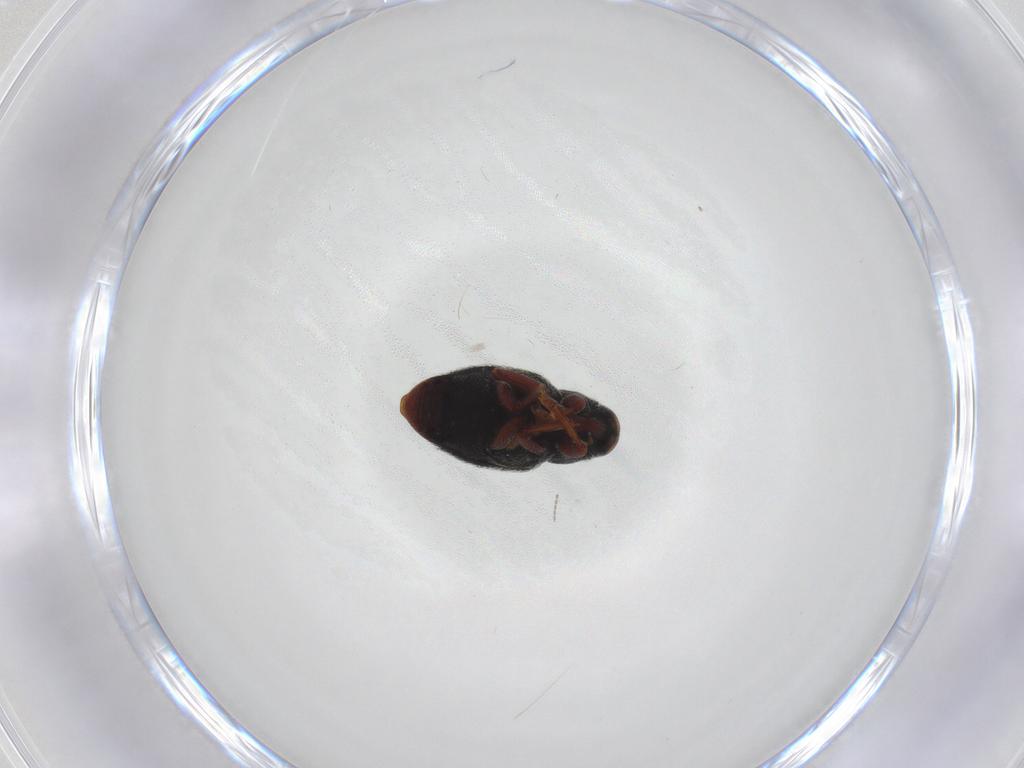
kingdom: Animalia
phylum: Arthropoda
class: Insecta
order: Coleoptera
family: Curculionidae
